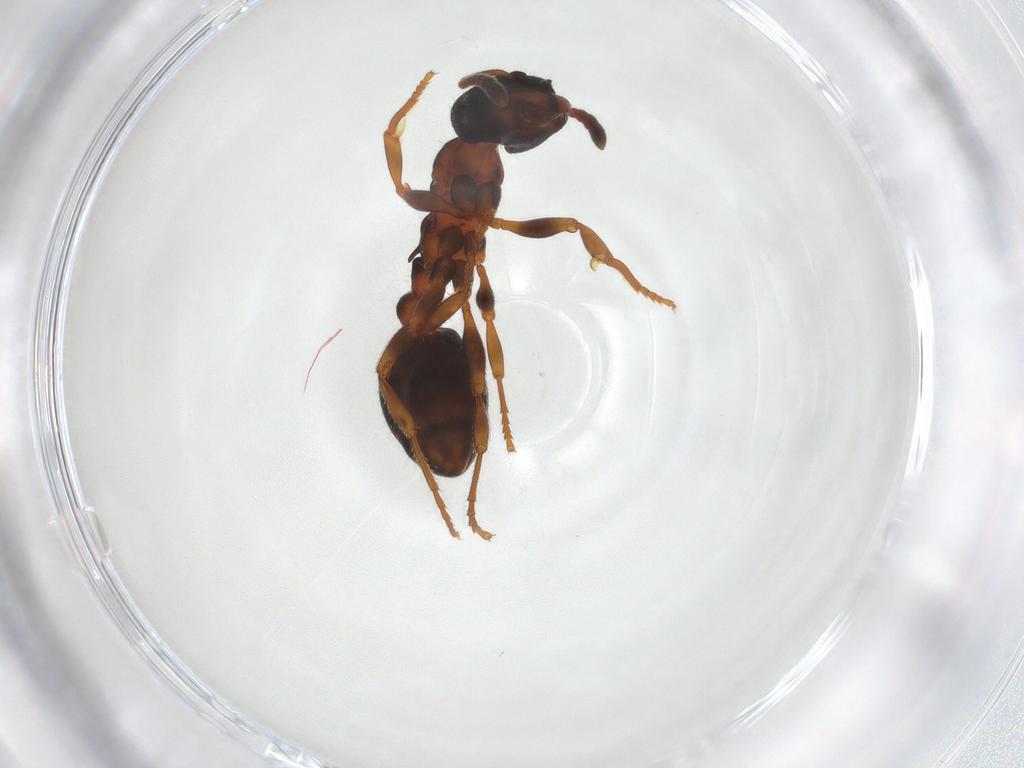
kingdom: Animalia
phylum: Arthropoda
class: Insecta
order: Hymenoptera
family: Formicidae
